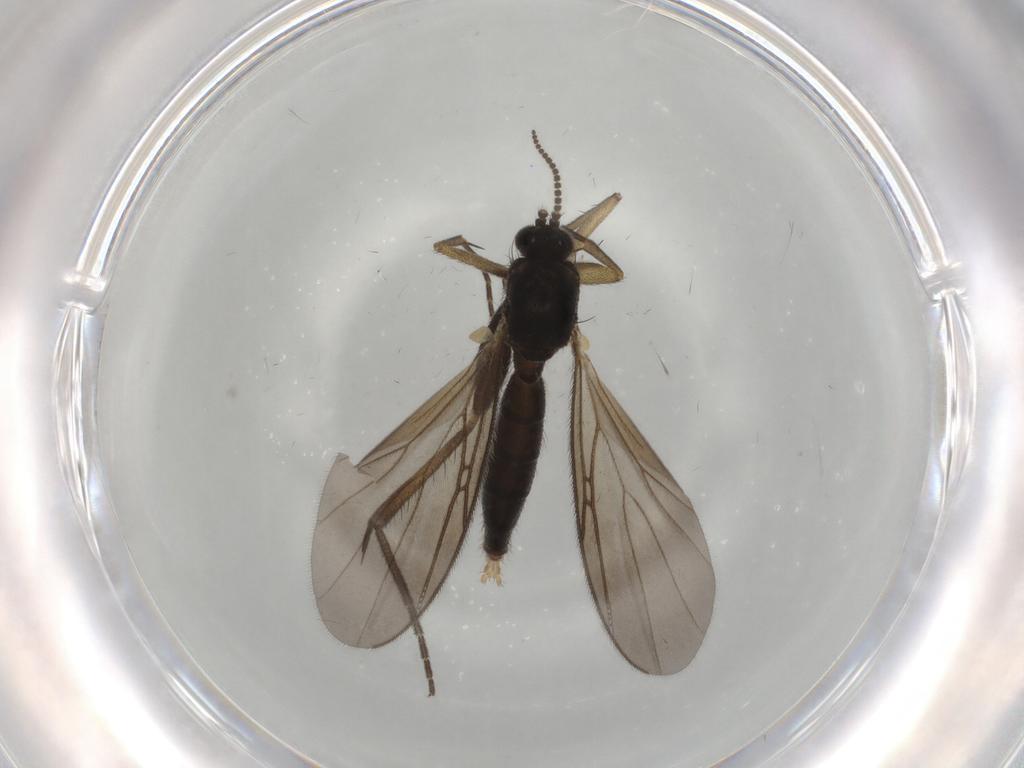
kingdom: Animalia
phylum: Arthropoda
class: Insecta
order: Diptera
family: Mycetophilidae
